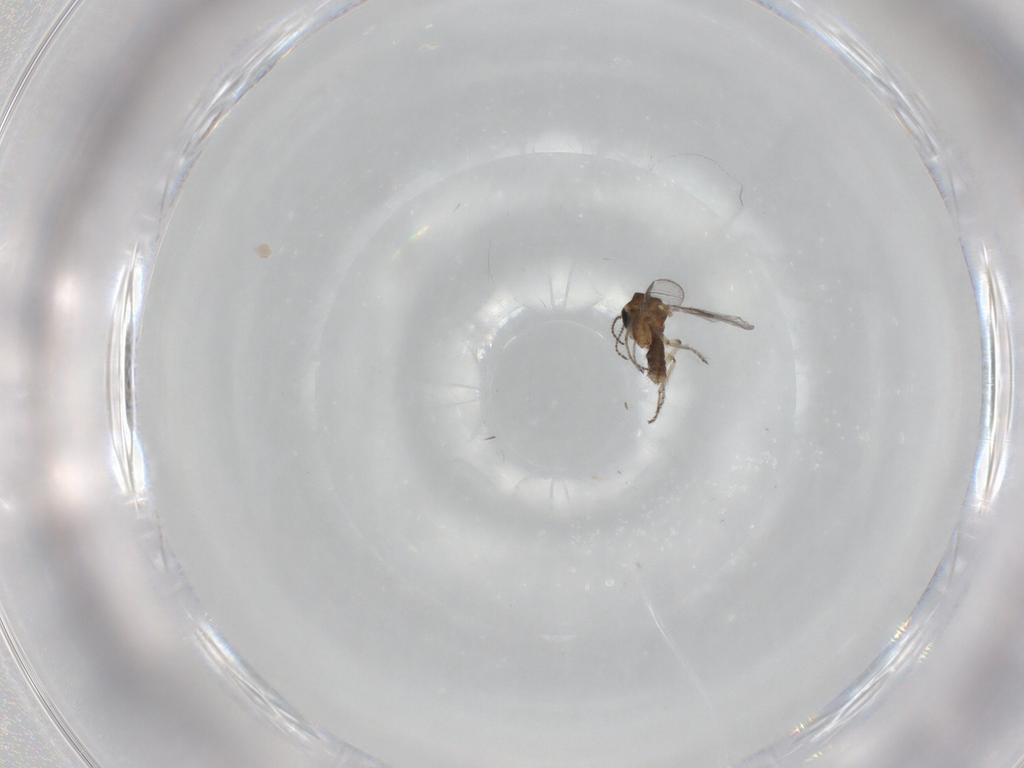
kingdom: Animalia
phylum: Arthropoda
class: Insecta
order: Diptera
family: Ceratopogonidae
